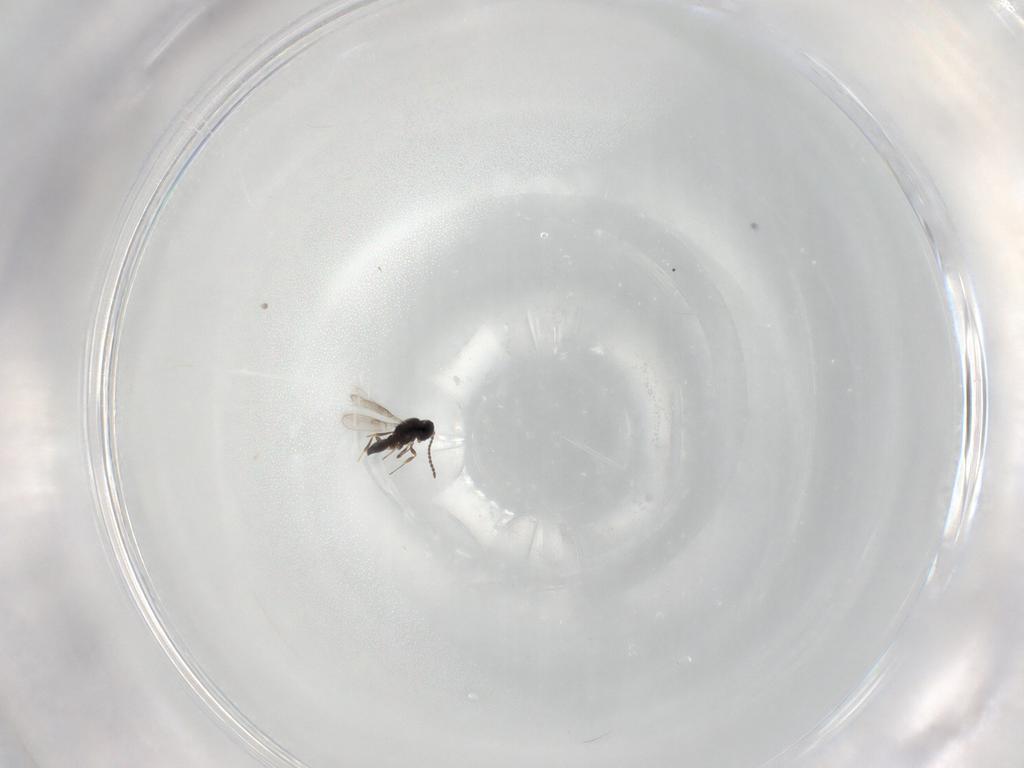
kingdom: Animalia
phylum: Arthropoda
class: Insecta
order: Hymenoptera
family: Scelionidae
